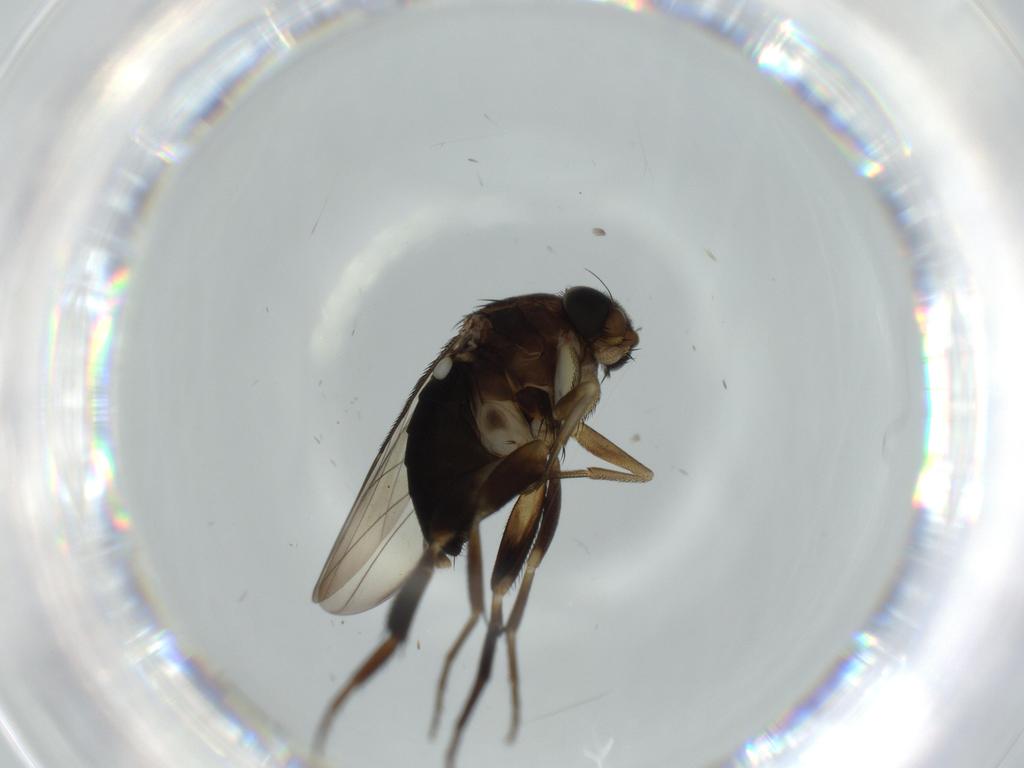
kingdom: Animalia
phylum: Arthropoda
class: Insecta
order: Diptera
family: Phoridae
